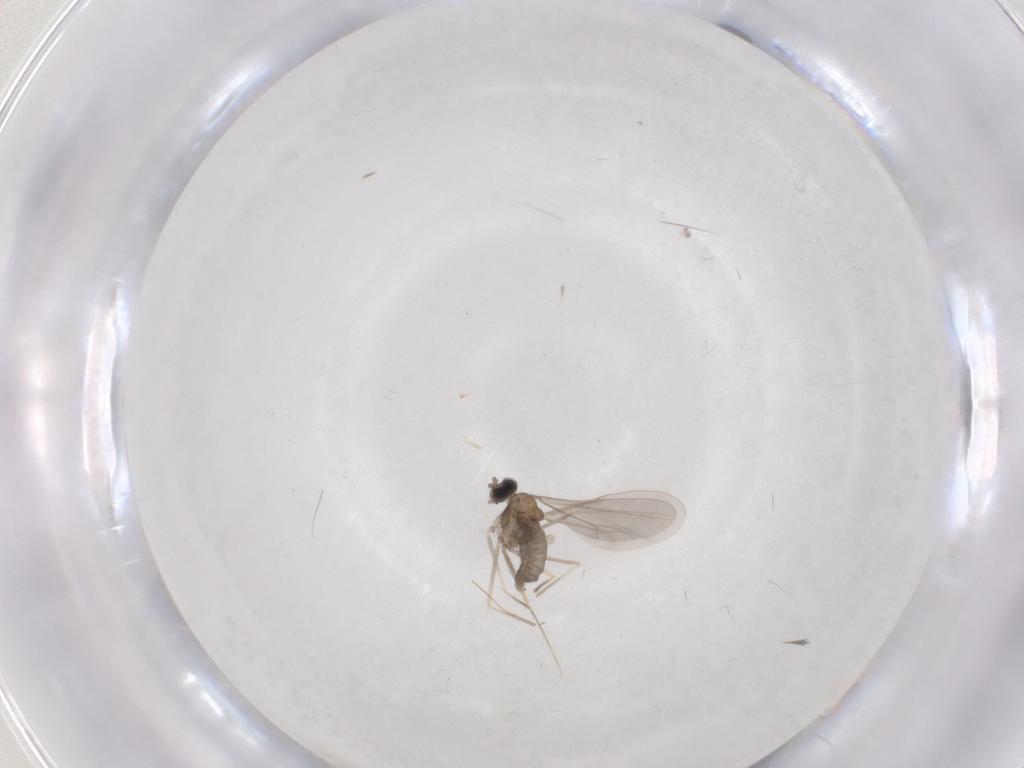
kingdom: Animalia
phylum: Arthropoda
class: Insecta
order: Diptera
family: Cecidomyiidae
